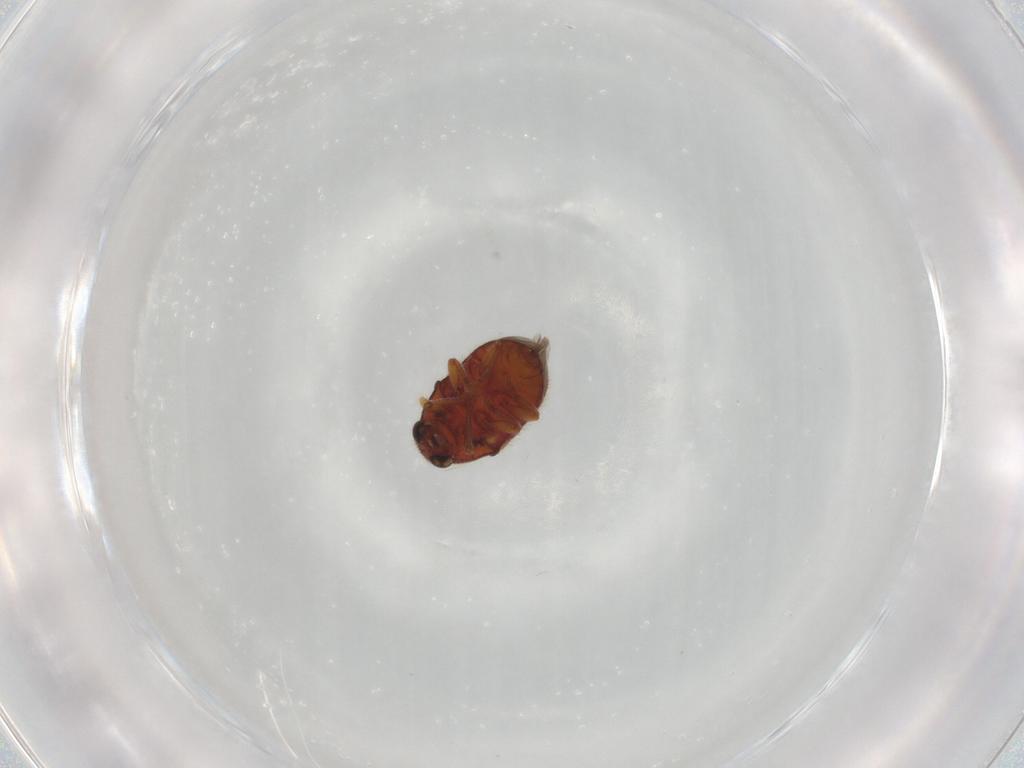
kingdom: Animalia
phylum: Arthropoda
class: Insecta
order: Coleoptera
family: Anthribidae
